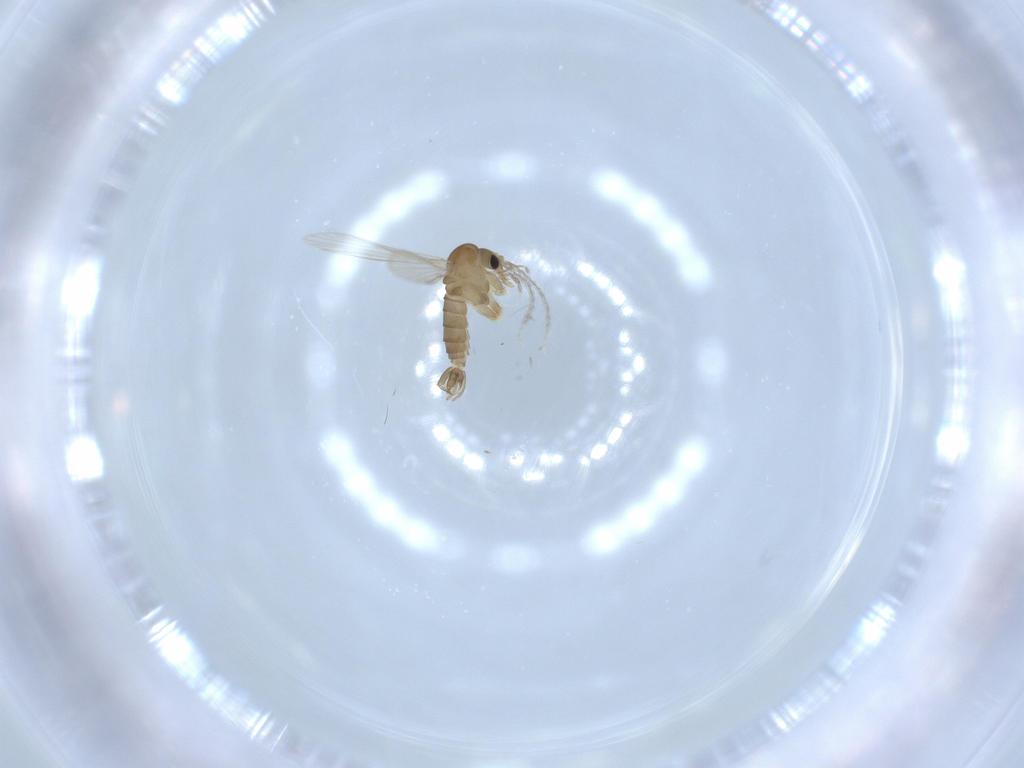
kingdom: Animalia
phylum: Arthropoda
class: Insecta
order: Diptera
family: Psychodidae
